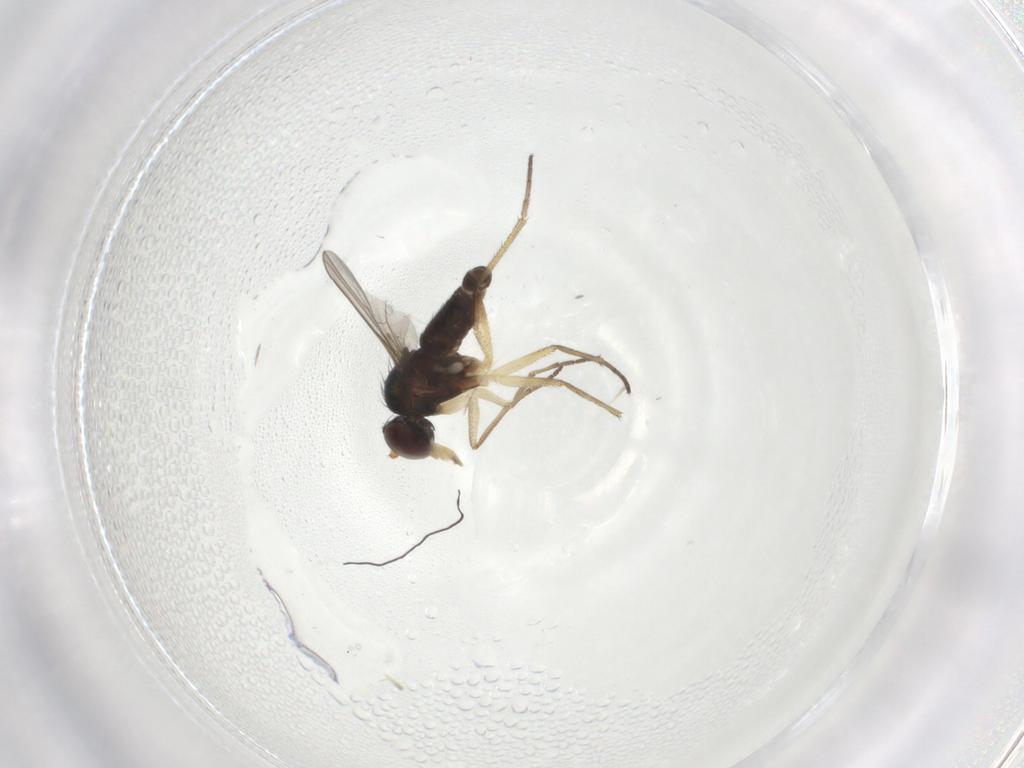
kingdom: Animalia
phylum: Arthropoda
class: Insecta
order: Diptera
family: Dolichopodidae
